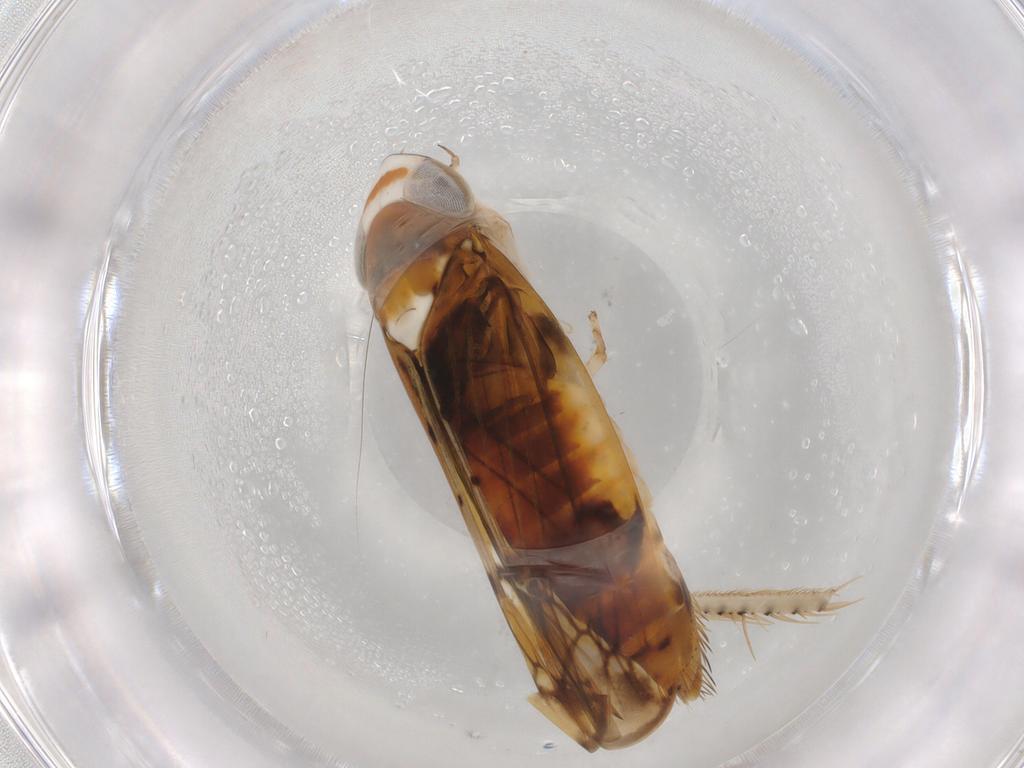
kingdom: Animalia
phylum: Arthropoda
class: Insecta
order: Hemiptera
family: Cicadellidae
